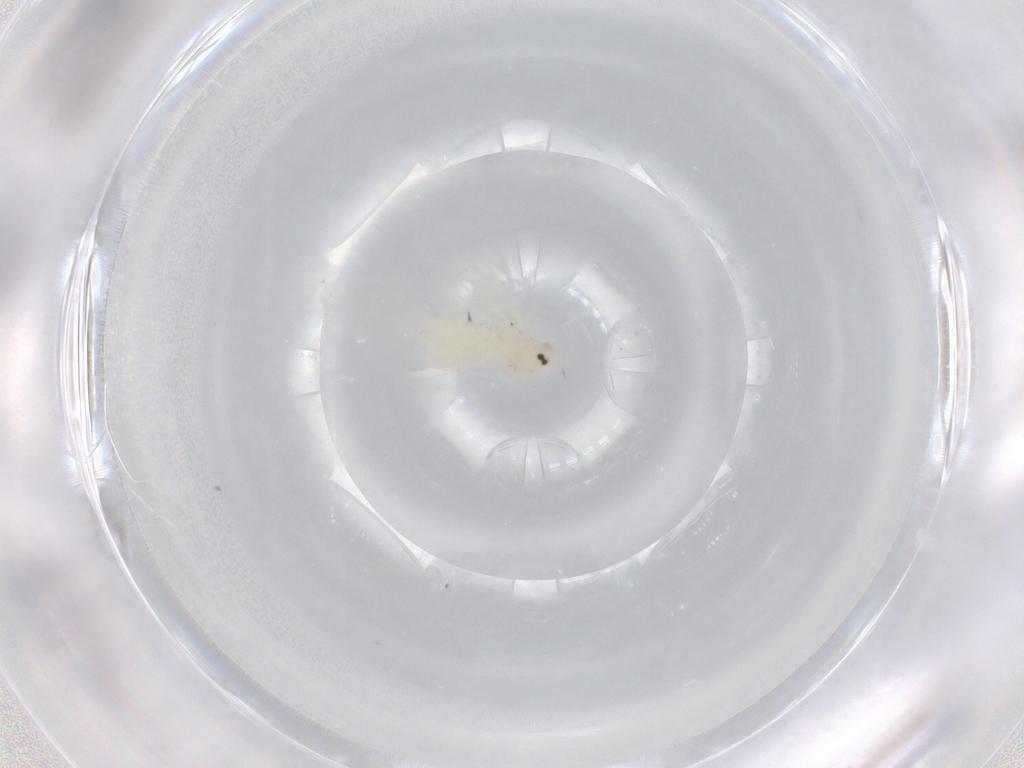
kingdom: Animalia
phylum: Arthropoda
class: Insecta
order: Hemiptera
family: Aleyrodidae
